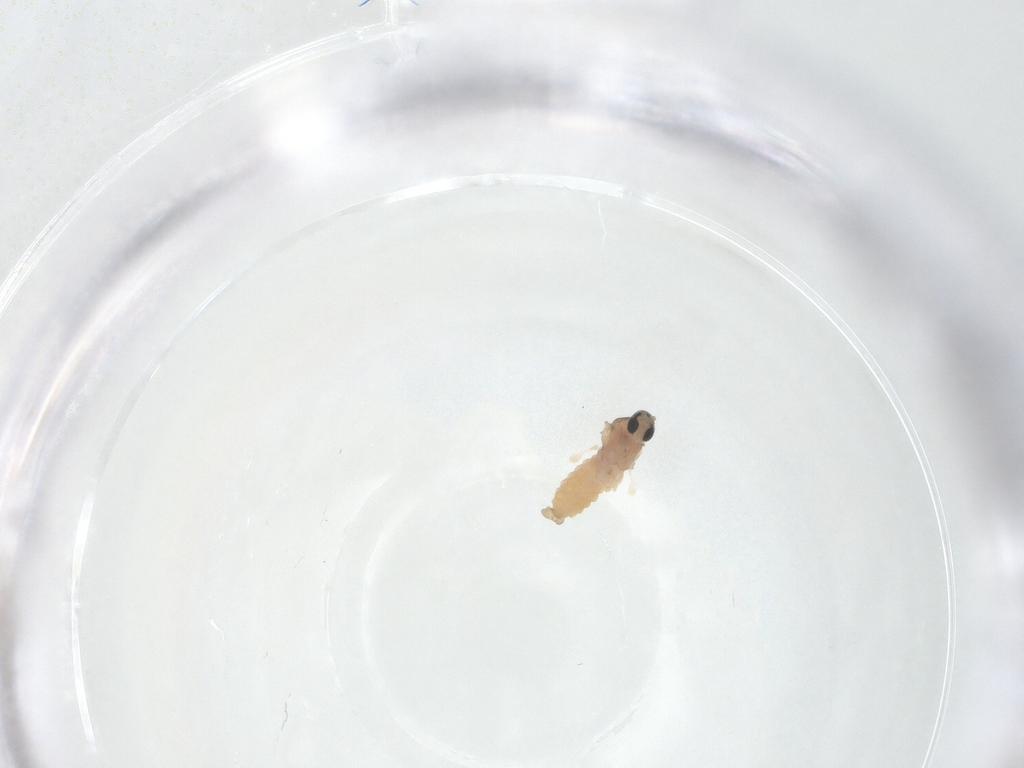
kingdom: Animalia
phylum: Arthropoda
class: Insecta
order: Diptera
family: Cecidomyiidae
